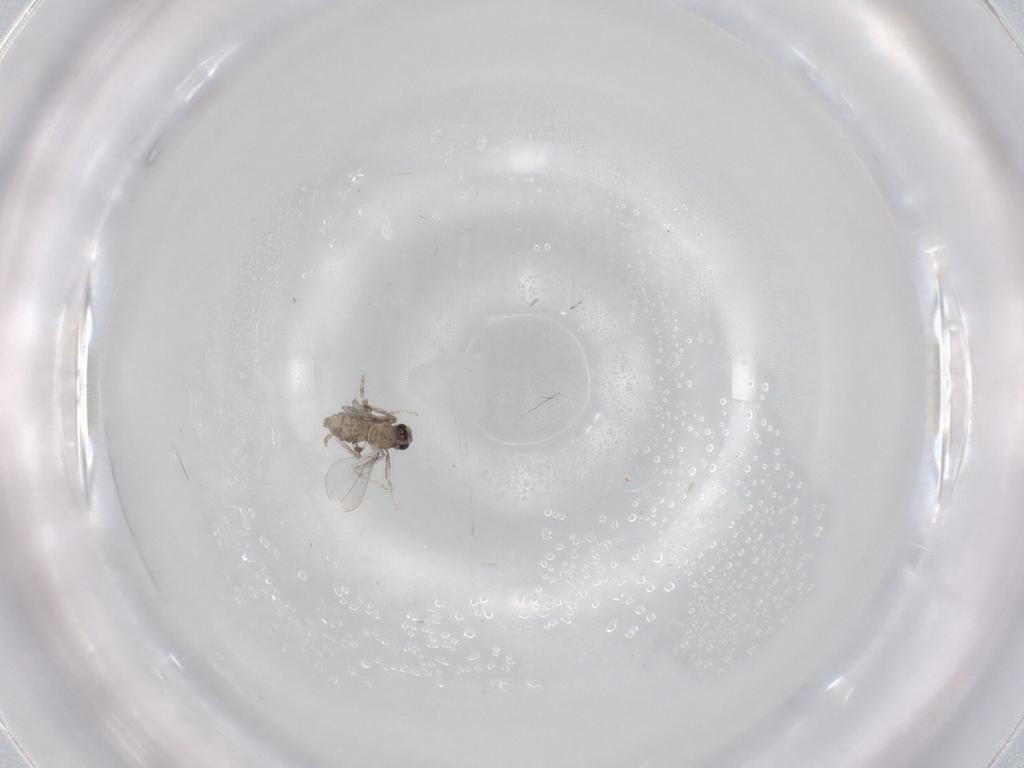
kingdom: Animalia
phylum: Arthropoda
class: Insecta
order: Diptera
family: Cecidomyiidae
